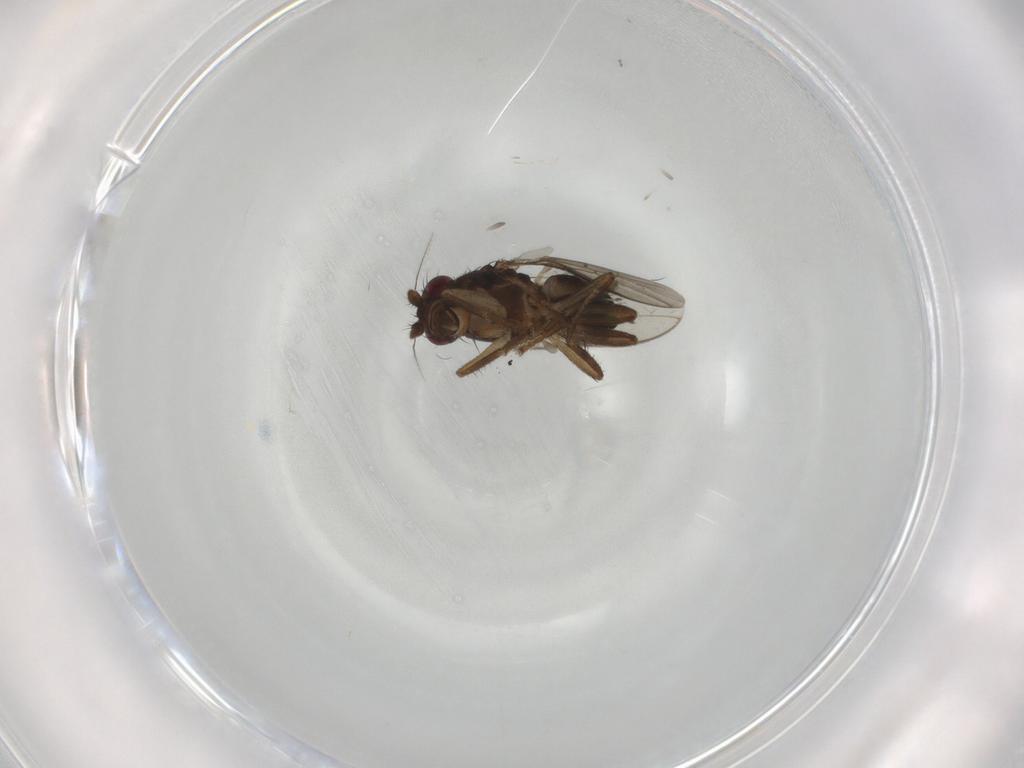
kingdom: Animalia
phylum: Arthropoda
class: Insecta
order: Diptera
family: Sphaeroceridae
